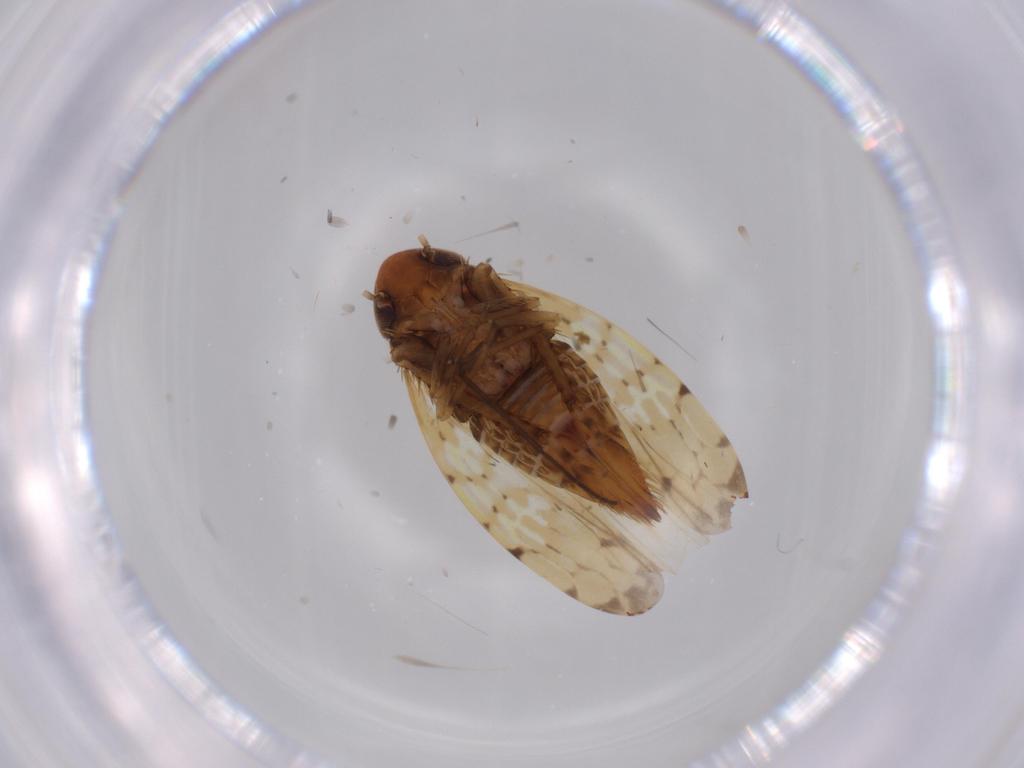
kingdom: Animalia
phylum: Arthropoda
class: Insecta
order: Hemiptera
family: Cicadellidae
